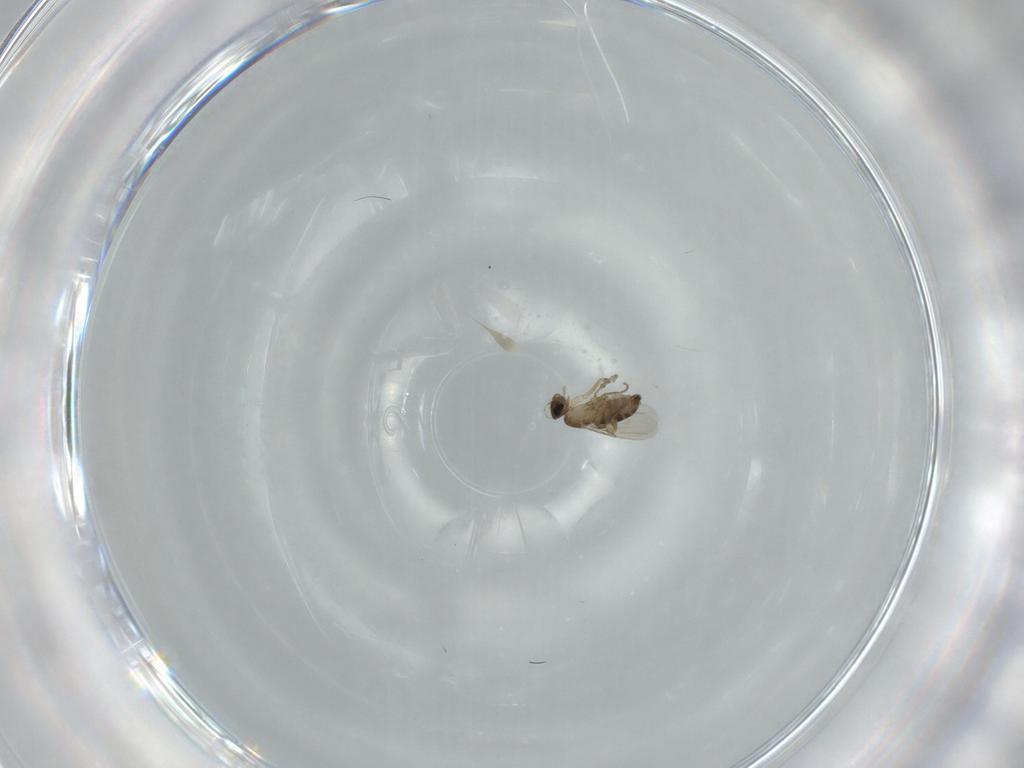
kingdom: Animalia
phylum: Arthropoda
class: Insecta
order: Diptera
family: Phoridae
